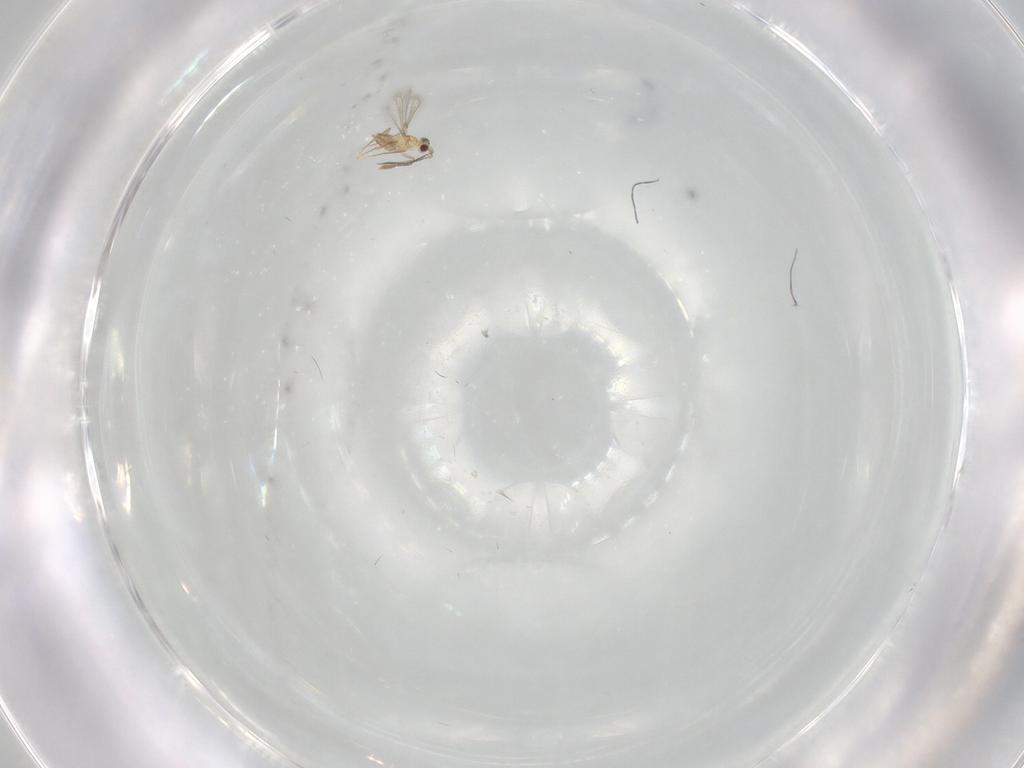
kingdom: Animalia
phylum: Arthropoda
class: Insecta
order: Hymenoptera
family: Mymaridae
